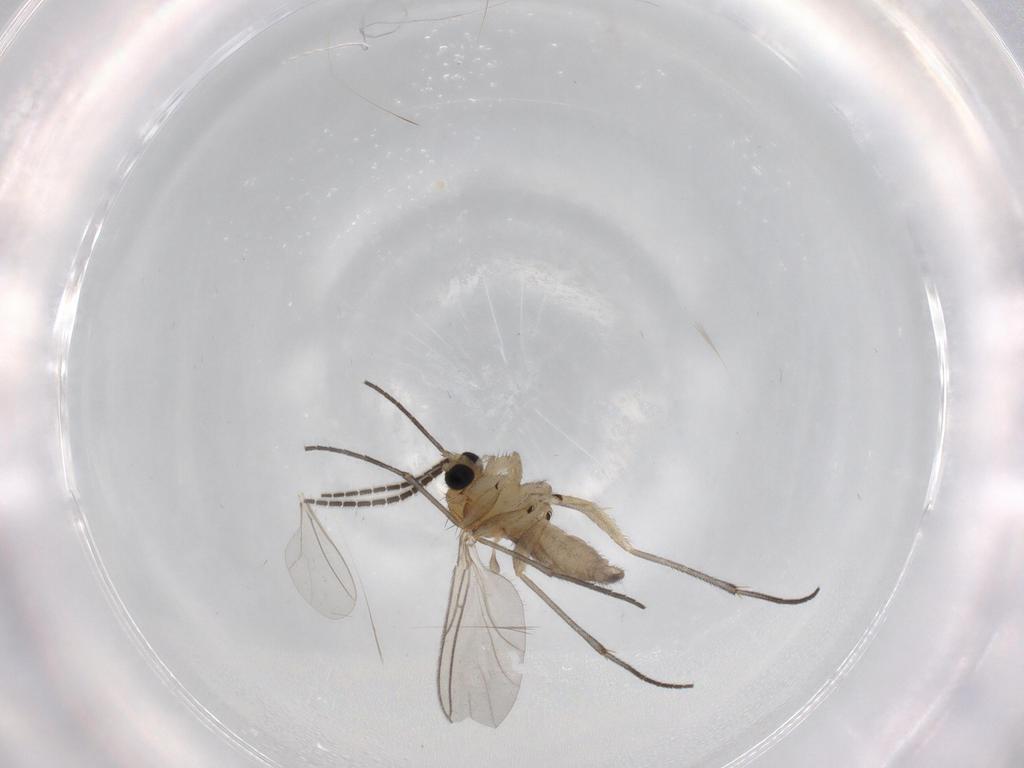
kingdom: Animalia
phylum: Arthropoda
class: Insecta
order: Diptera
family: Sciaridae
